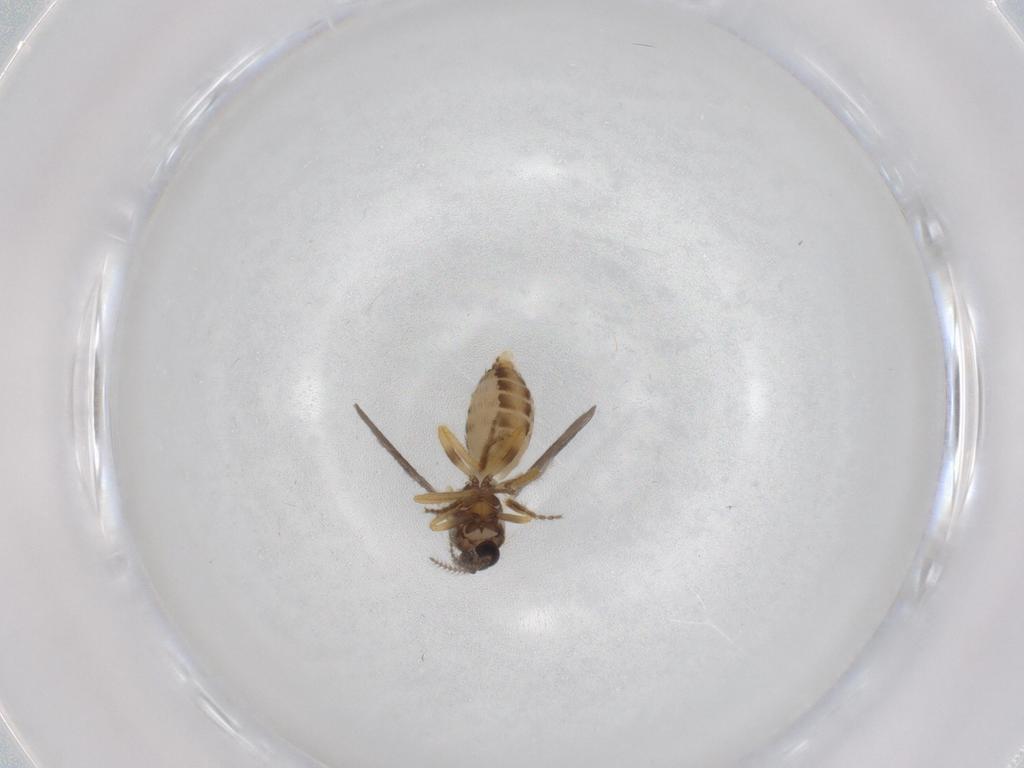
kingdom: Animalia
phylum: Arthropoda
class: Insecta
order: Diptera
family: Ceratopogonidae
